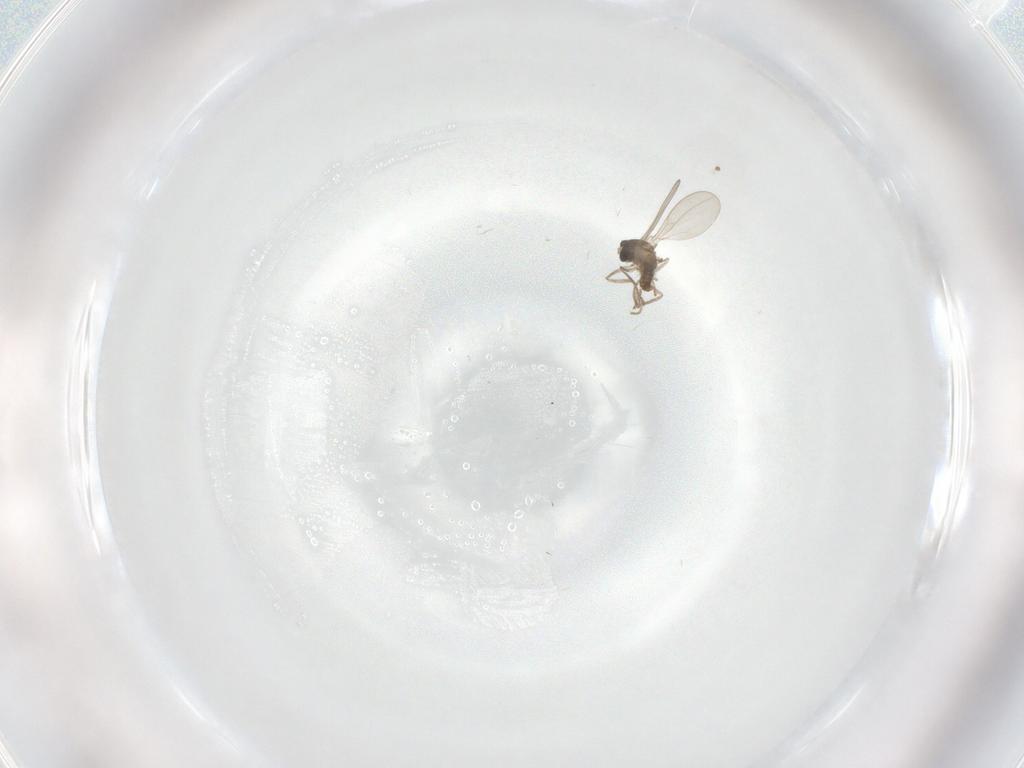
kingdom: Animalia
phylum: Arthropoda
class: Insecta
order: Diptera
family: Cecidomyiidae
